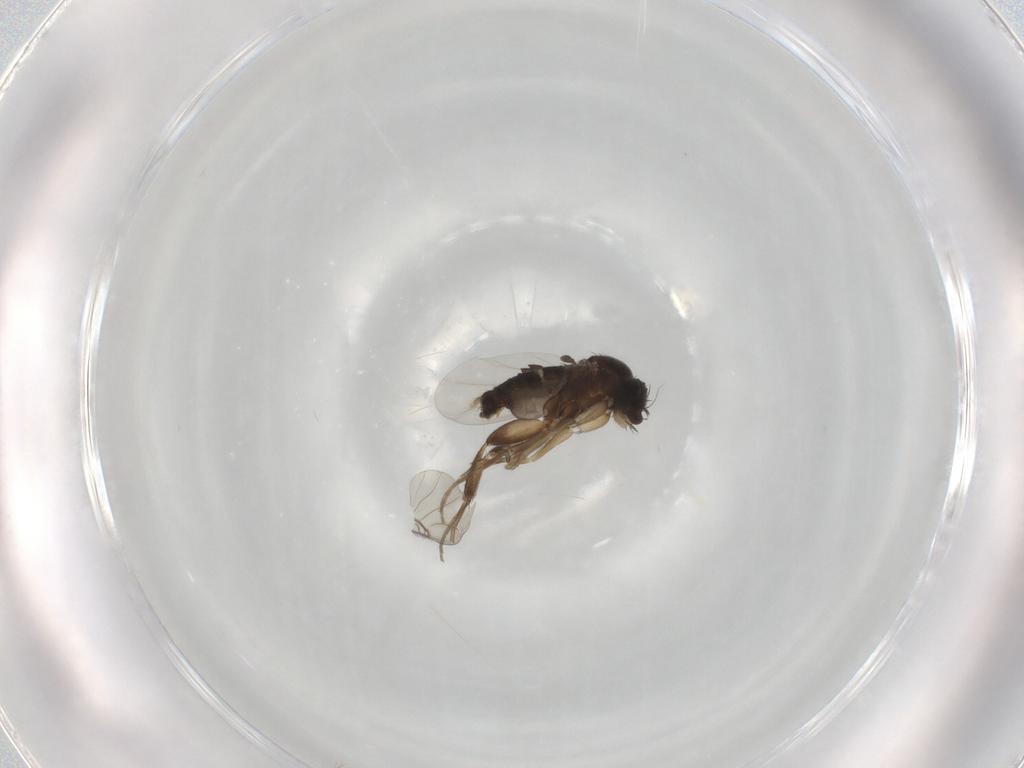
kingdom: Animalia
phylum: Arthropoda
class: Insecta
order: Diptera
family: Phoridae
